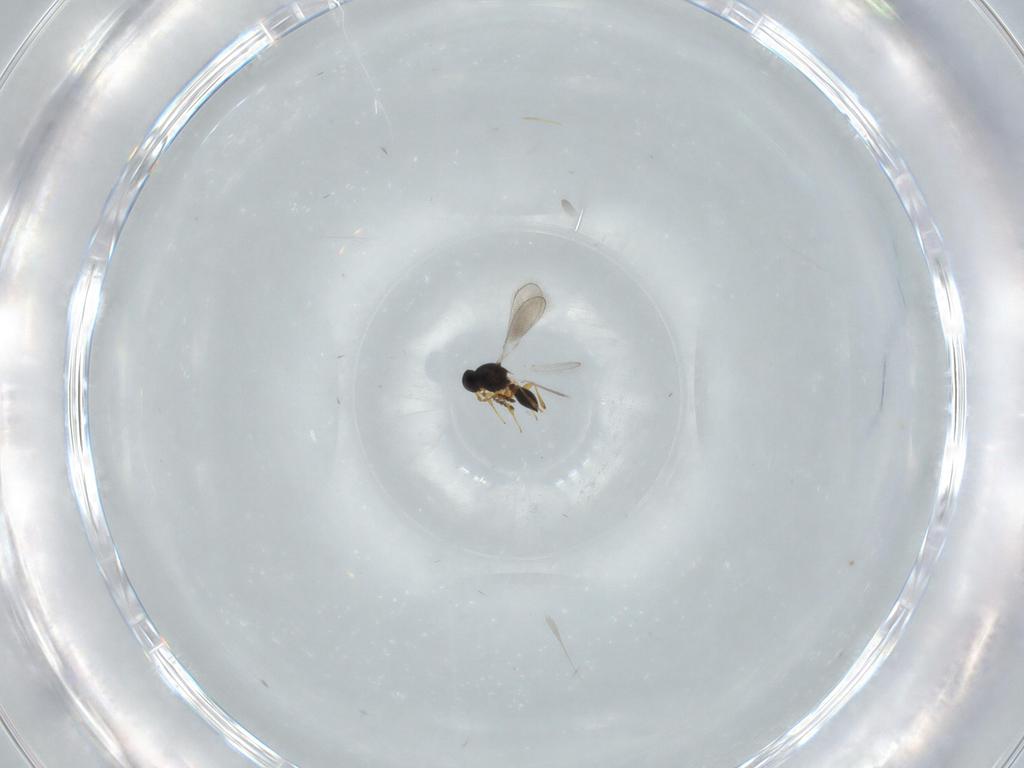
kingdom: Animalia
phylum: Arthropoda
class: Insecta
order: Hymenoptera
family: Platygastridae
